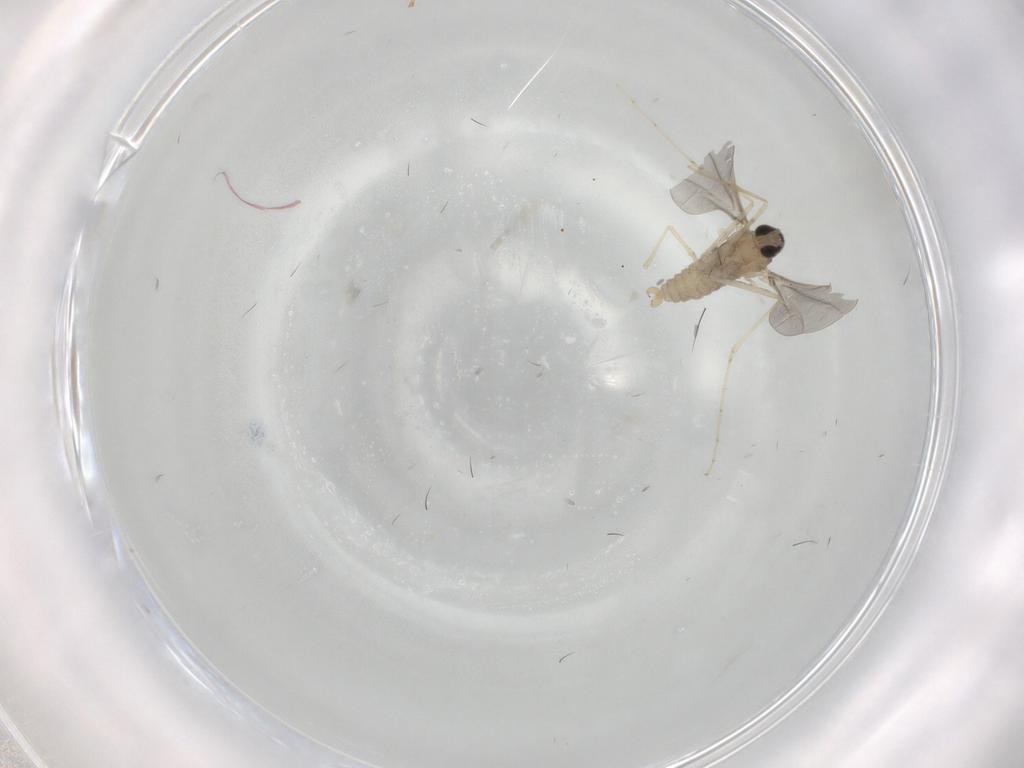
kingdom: Animalia
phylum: Arthropoda
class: Insecta
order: Diptera
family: Cecidomyiidae
